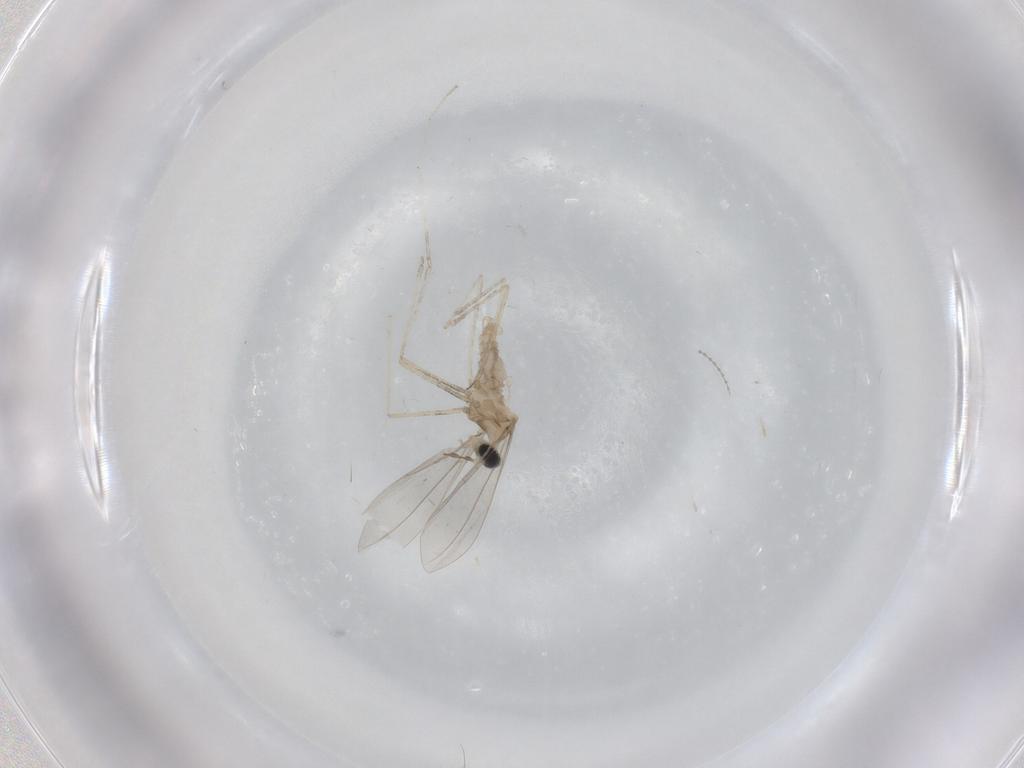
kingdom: Animalia
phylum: Arthropoda
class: Insecta
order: Diptera
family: Cecidomyiidae
